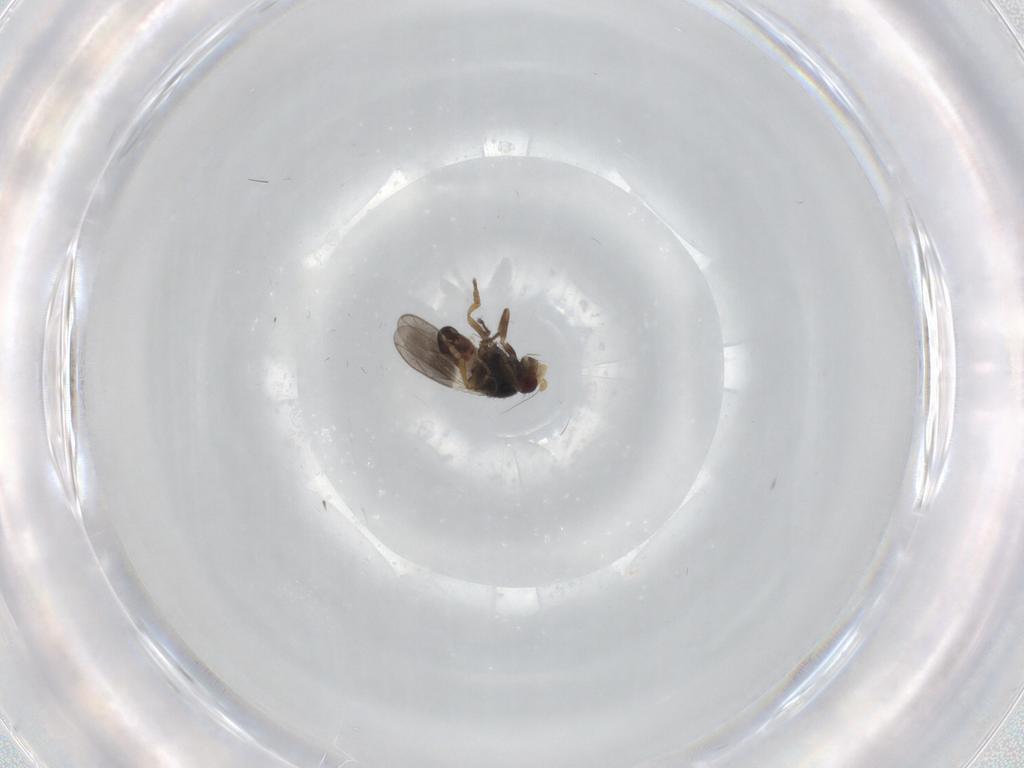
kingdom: Animalia
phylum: Arthropoda
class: Insecta
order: Diptera
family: Sphaeroceridae
